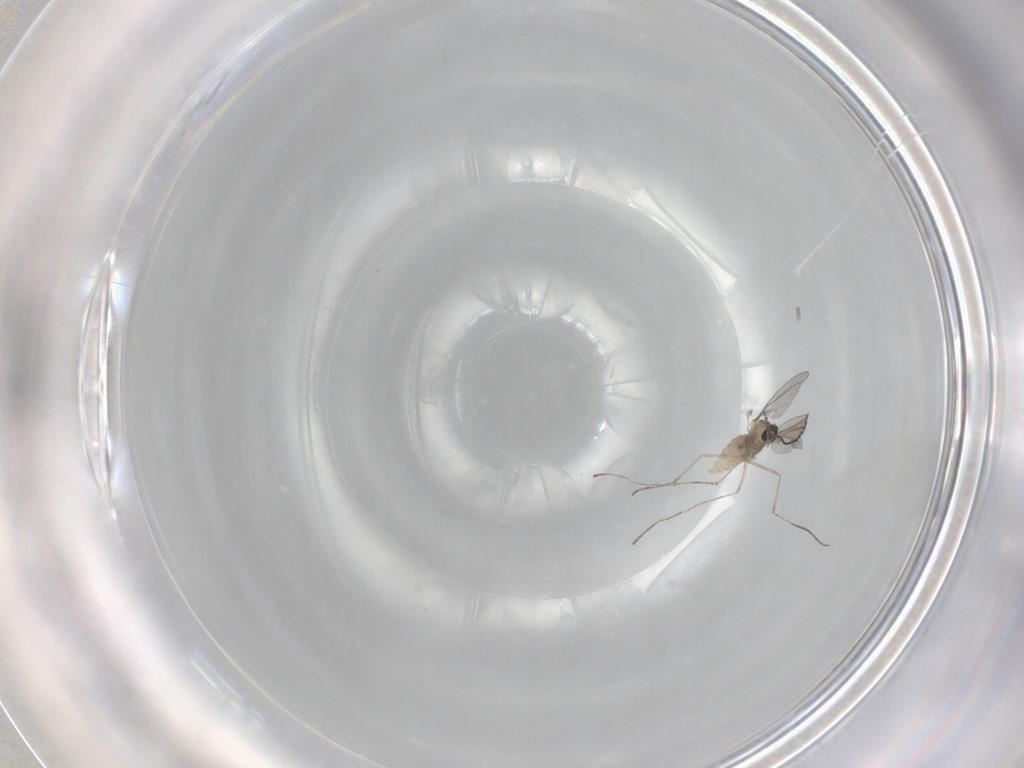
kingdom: Animalia
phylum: Arthropoda
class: Insecta
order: Diptera
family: Cecidomyiidae
